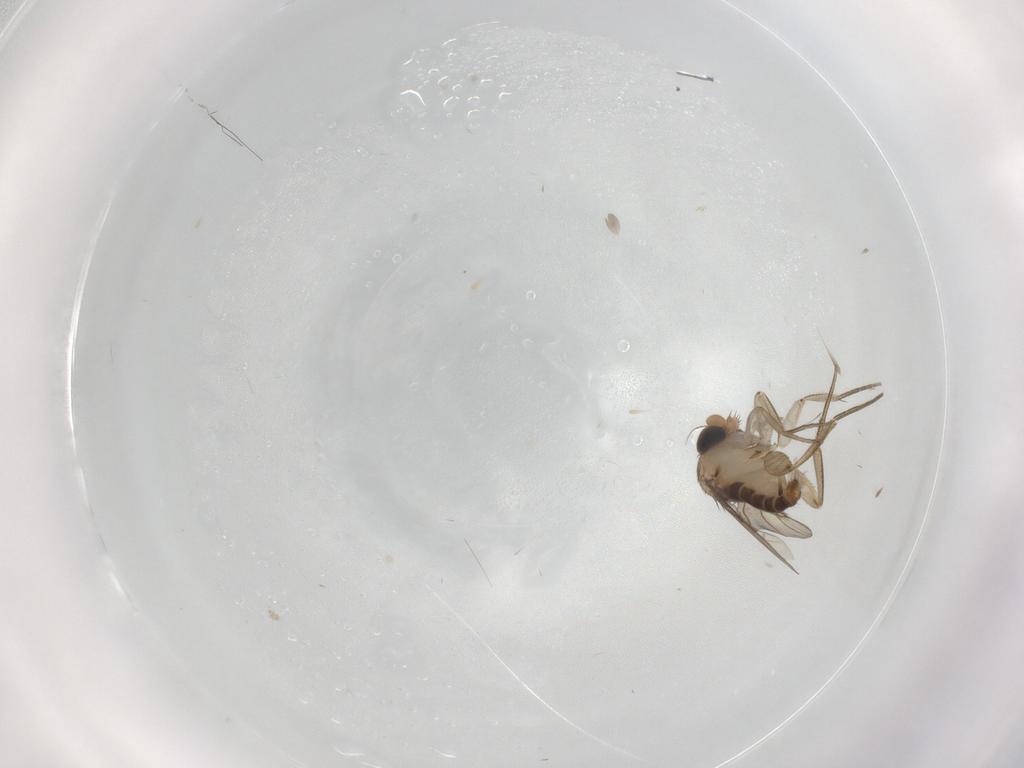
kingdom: Animalia
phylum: Arthropoda
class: Insecta
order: Diptera
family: Phoridae
